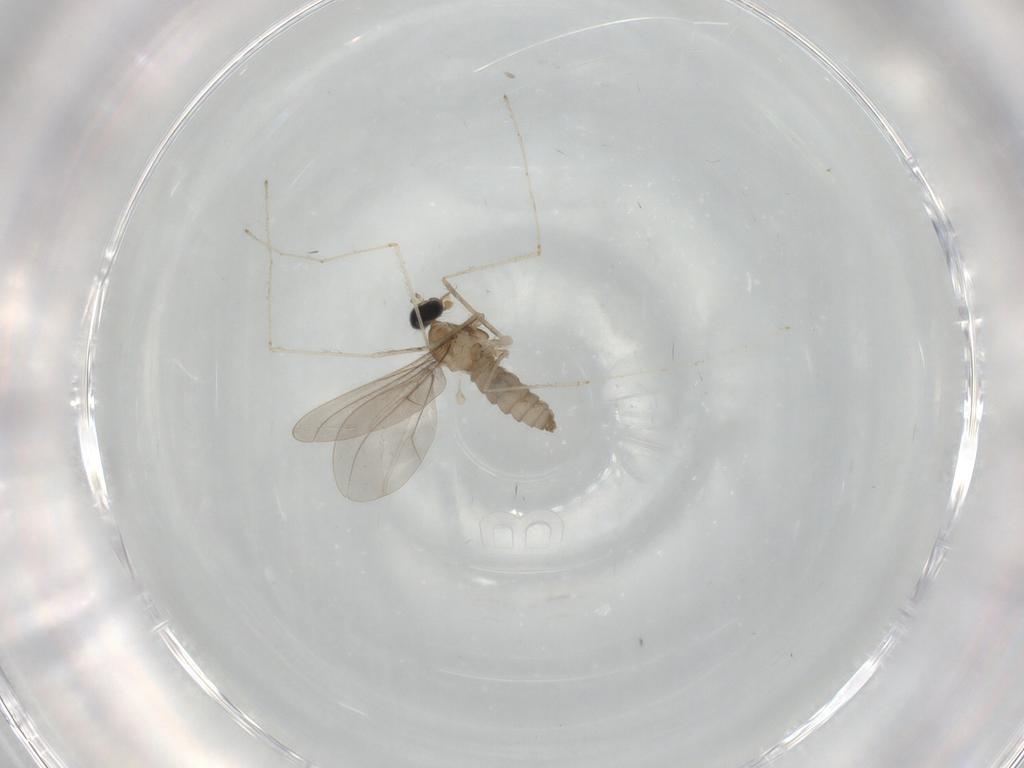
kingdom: Animalia
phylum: Arthropoda
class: Insecta
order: Diptera
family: Cecidomyiidae
